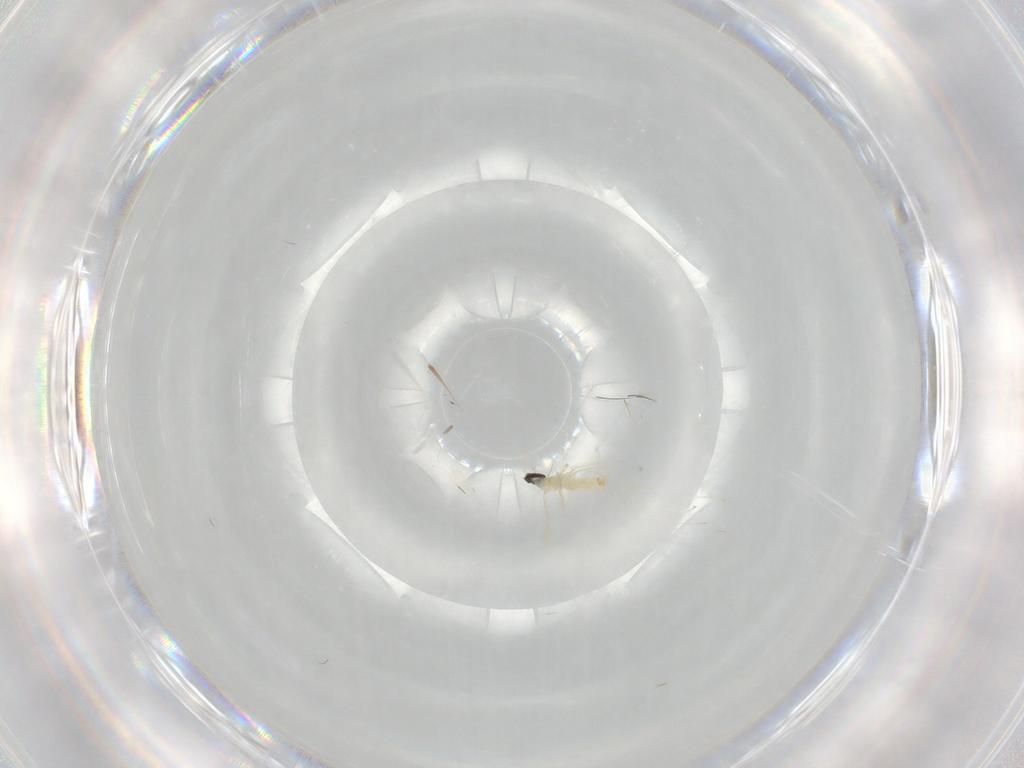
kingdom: Animalia
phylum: Arthropoda
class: Insecta
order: Diptera
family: Cecidomyiidae
